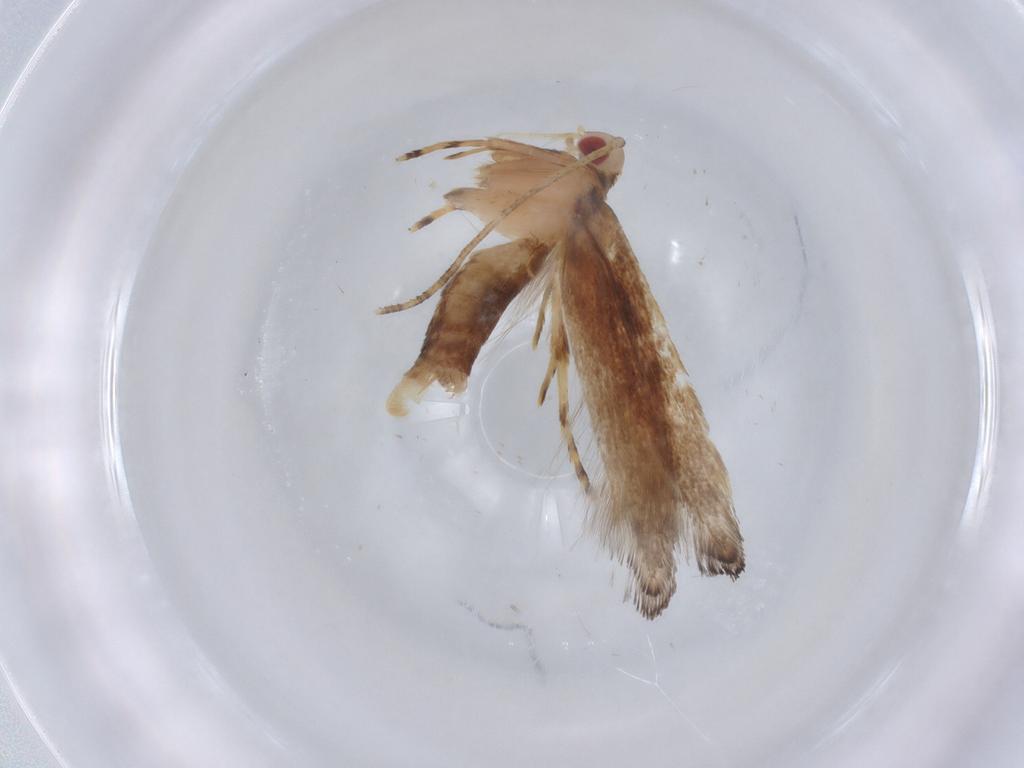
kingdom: Animalia
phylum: Arthropoda
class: Insecta
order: Lepidoptera
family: Cosmopterigidae
